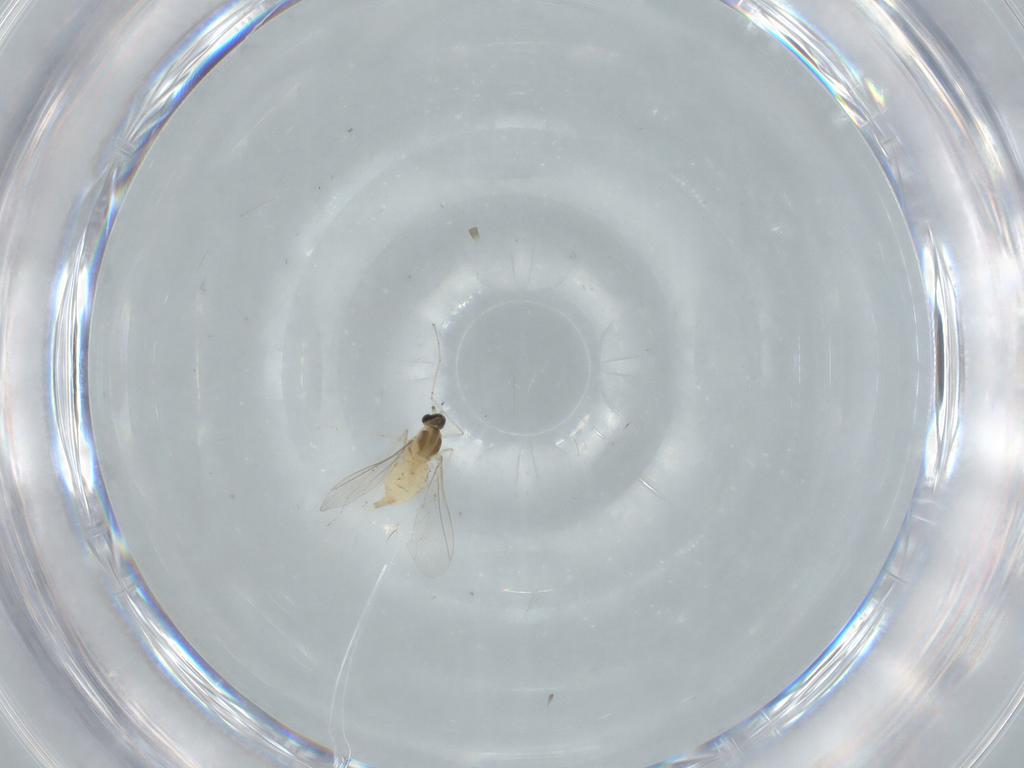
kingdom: Animalia
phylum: Arthropoda
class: Insecta
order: Diptera
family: Cecidomyiidae
